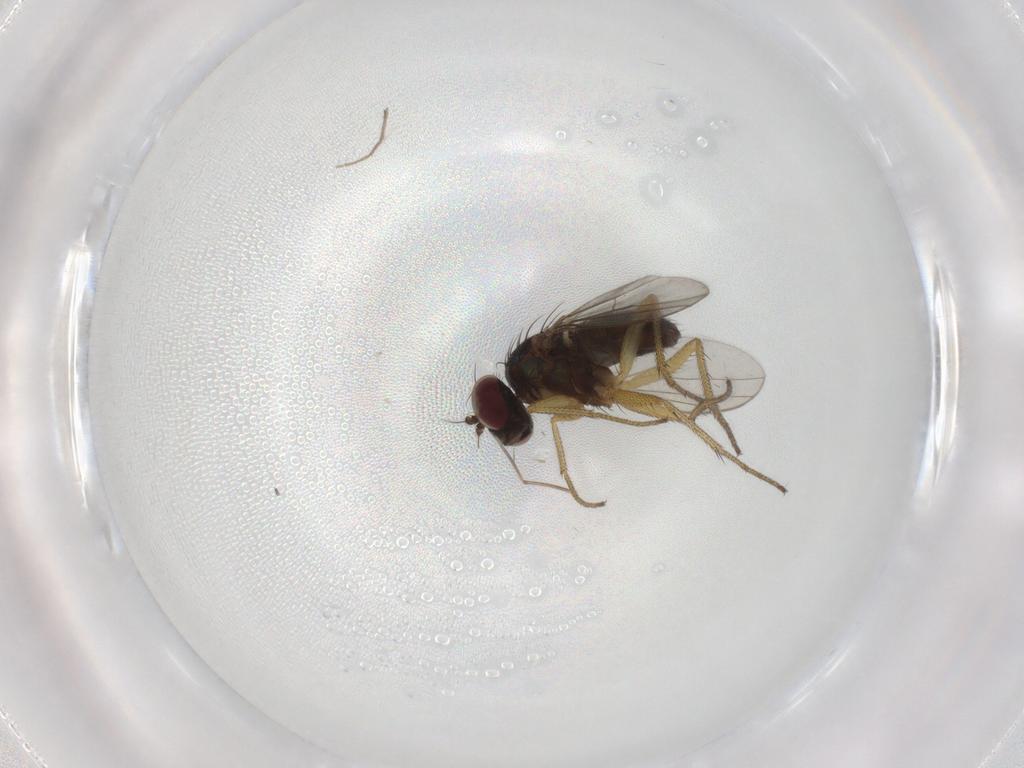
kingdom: Animalia
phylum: Arthropoda
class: Insecta
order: Diptera
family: Dolichopodidae
